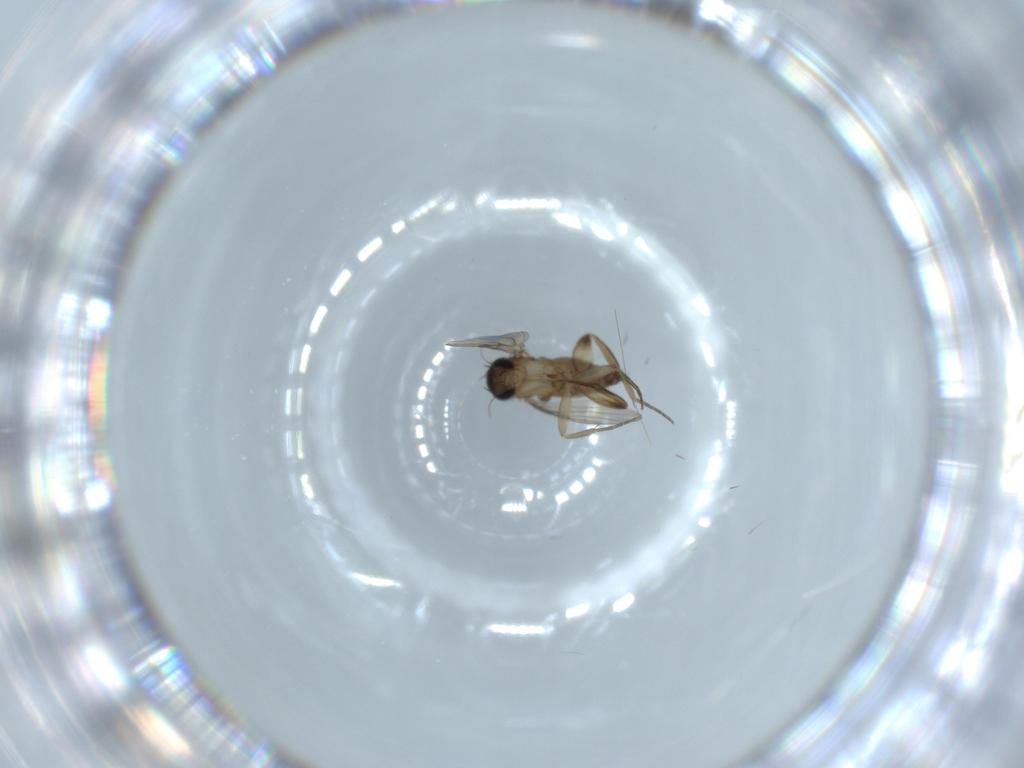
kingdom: Animalia
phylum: Arthropoda
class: Insecta
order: Diptera
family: Phoridae
